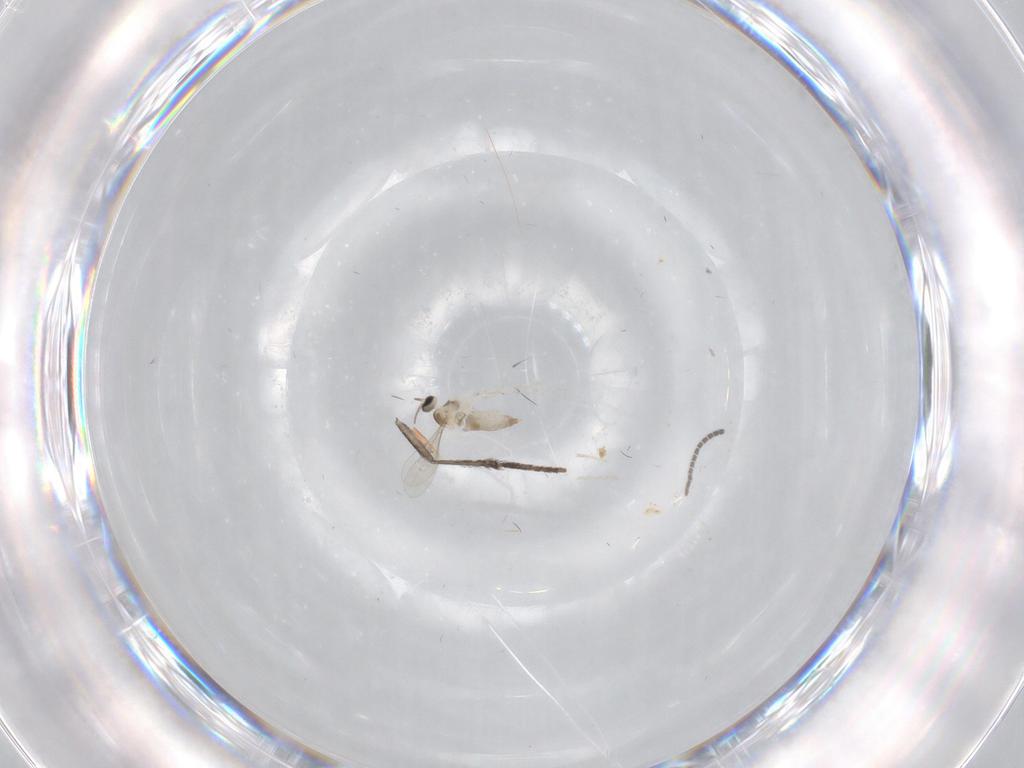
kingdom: Animalia
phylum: Arthropoda
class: Insecta
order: Diptera
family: Sciaridae
